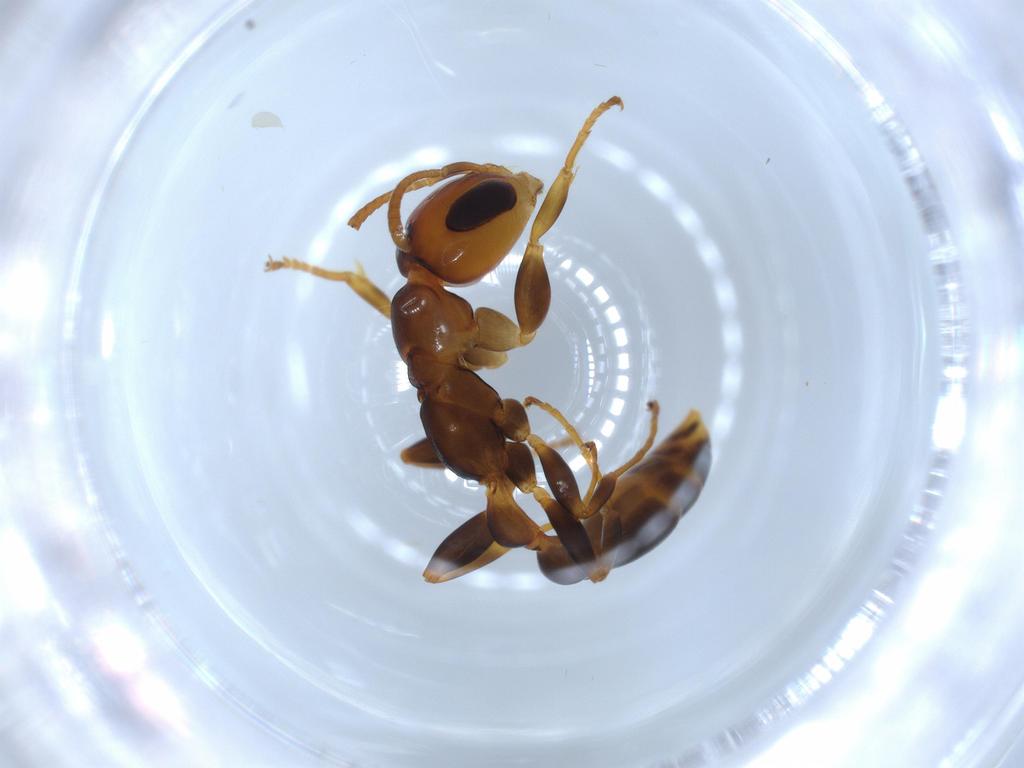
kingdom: Animalia
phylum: Arthropoda
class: Insecta
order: Hymenoptera
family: Formicidae
